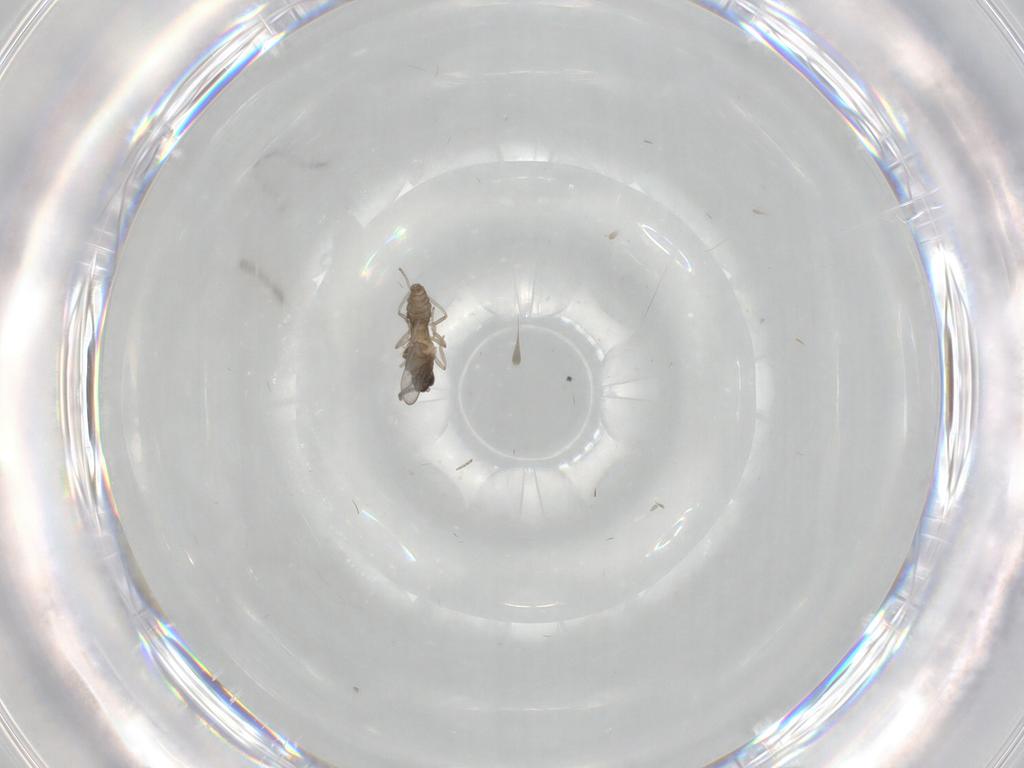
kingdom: Animalia
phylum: Arthropoda
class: Insecta
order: Diptera
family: Cecidomyiidae
